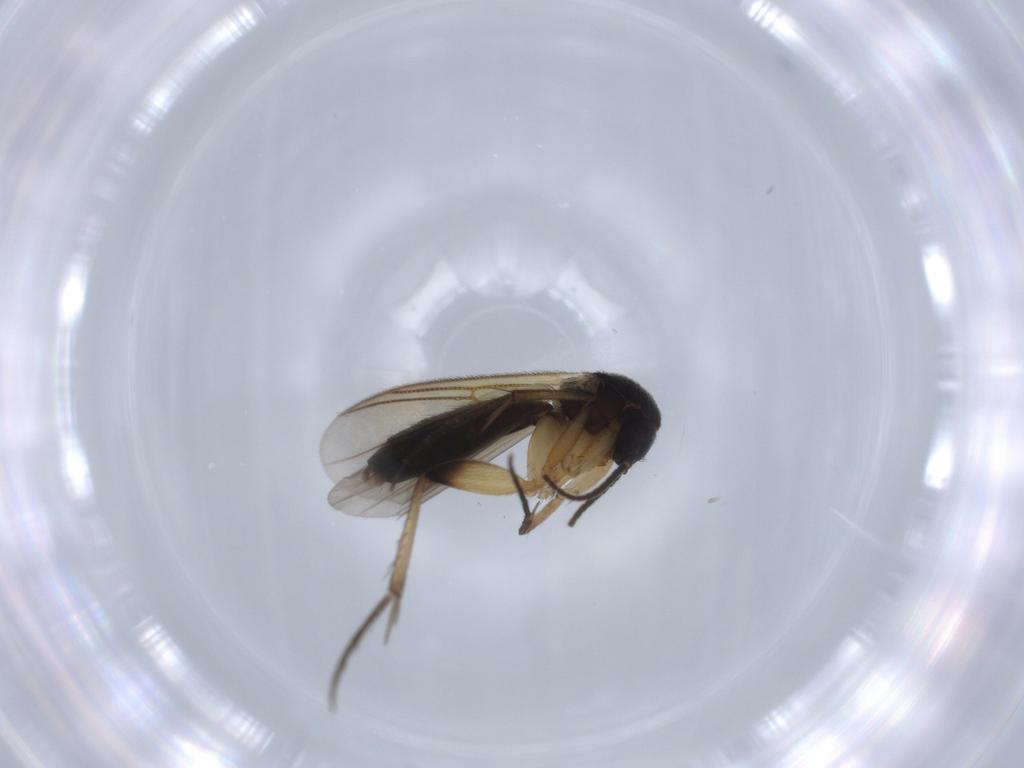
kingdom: Animalia
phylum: Arthropoda
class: Insecta
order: Diptera
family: Mycetophilidae
